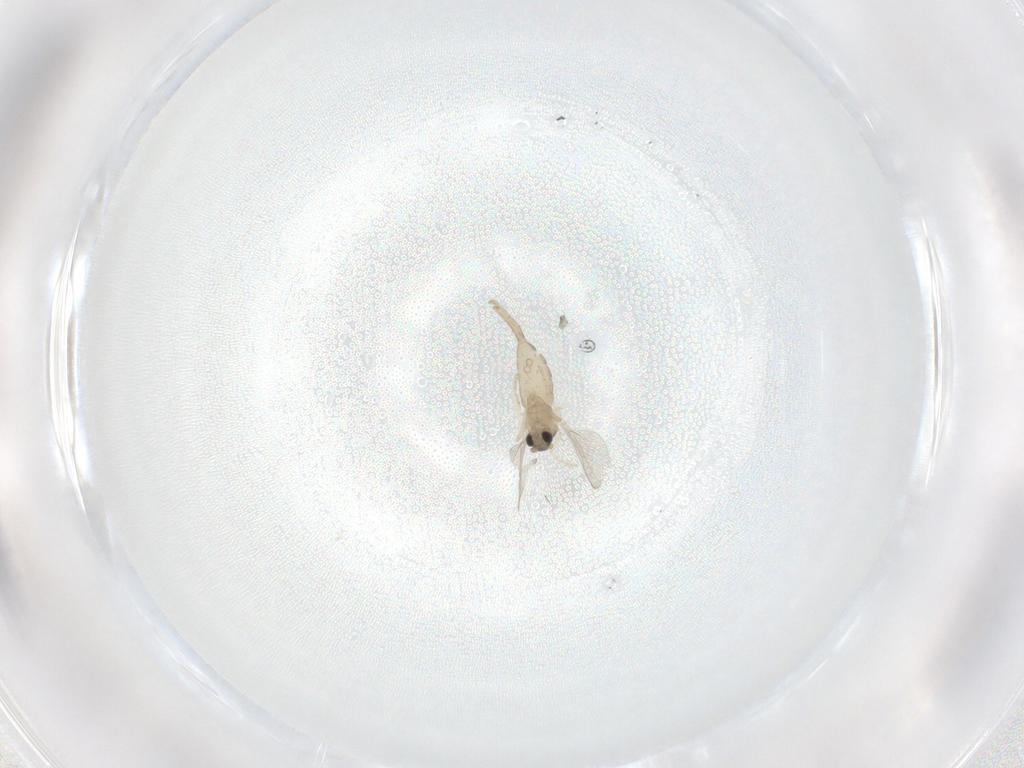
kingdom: Animalia
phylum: Arthropoda
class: Insecta
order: Diptera
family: Cecidomyiidae
